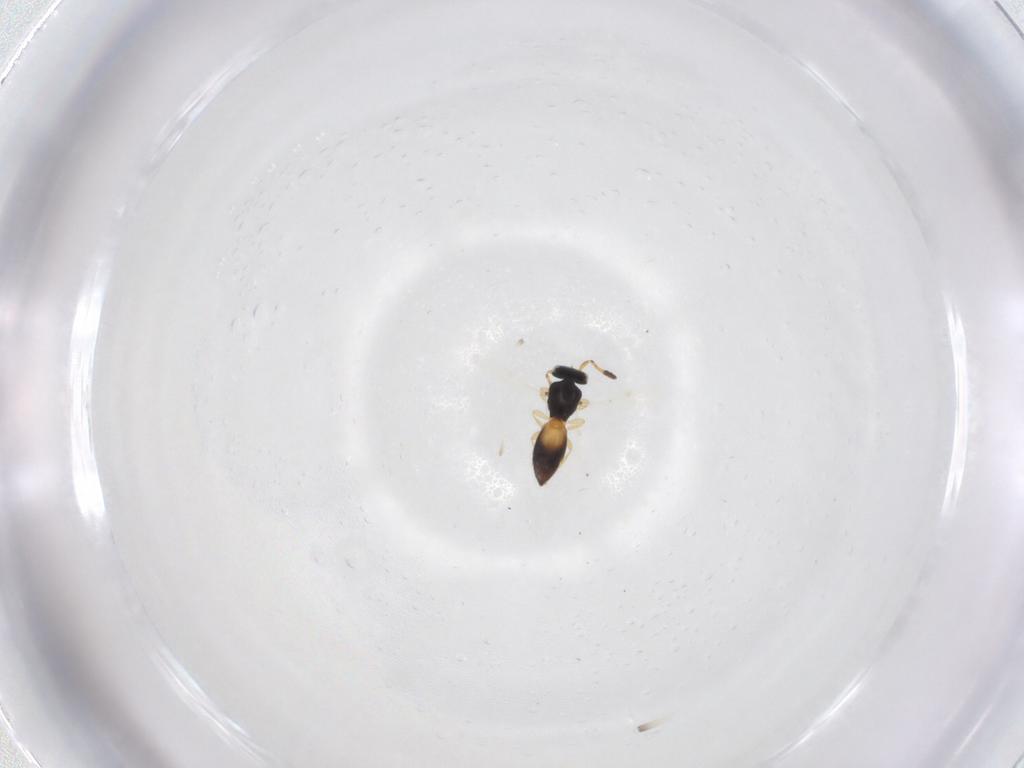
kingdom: Animalia
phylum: Arthropoda
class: Insecta
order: Hymenoptera
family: Scelionidae
